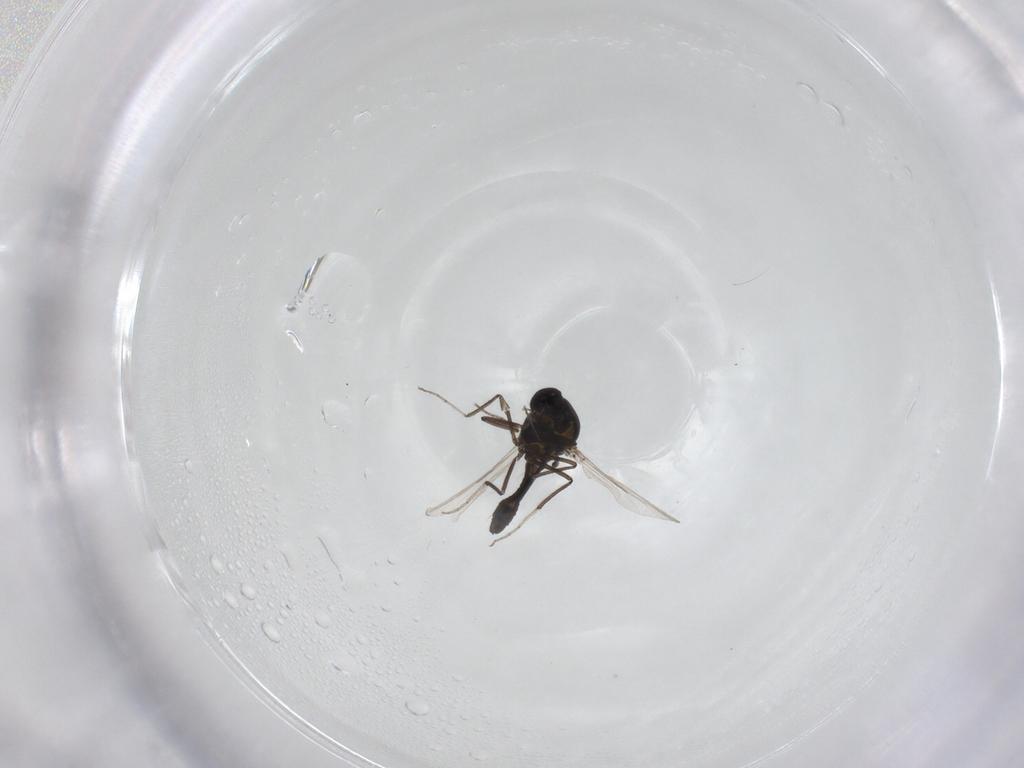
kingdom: Animalia
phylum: Arthropoda
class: Insecta
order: Diptera
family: Ceratopogonidae
